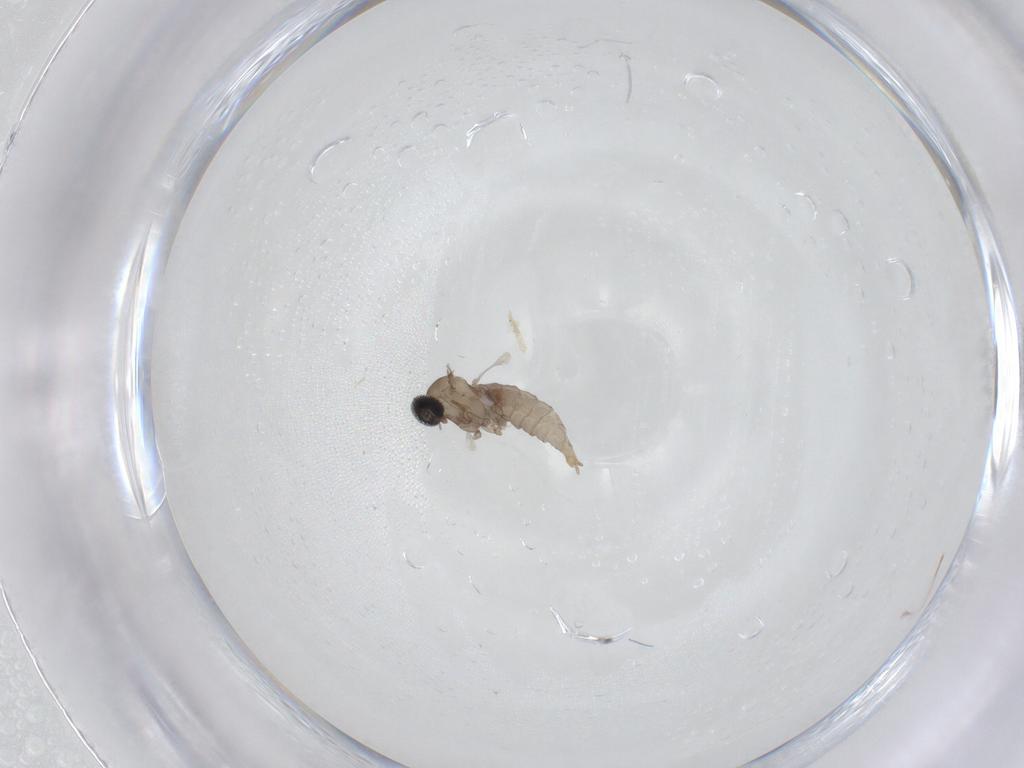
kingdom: Animalia
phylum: Arthropoda
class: Insecta
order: Diptera
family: Sciaridae
